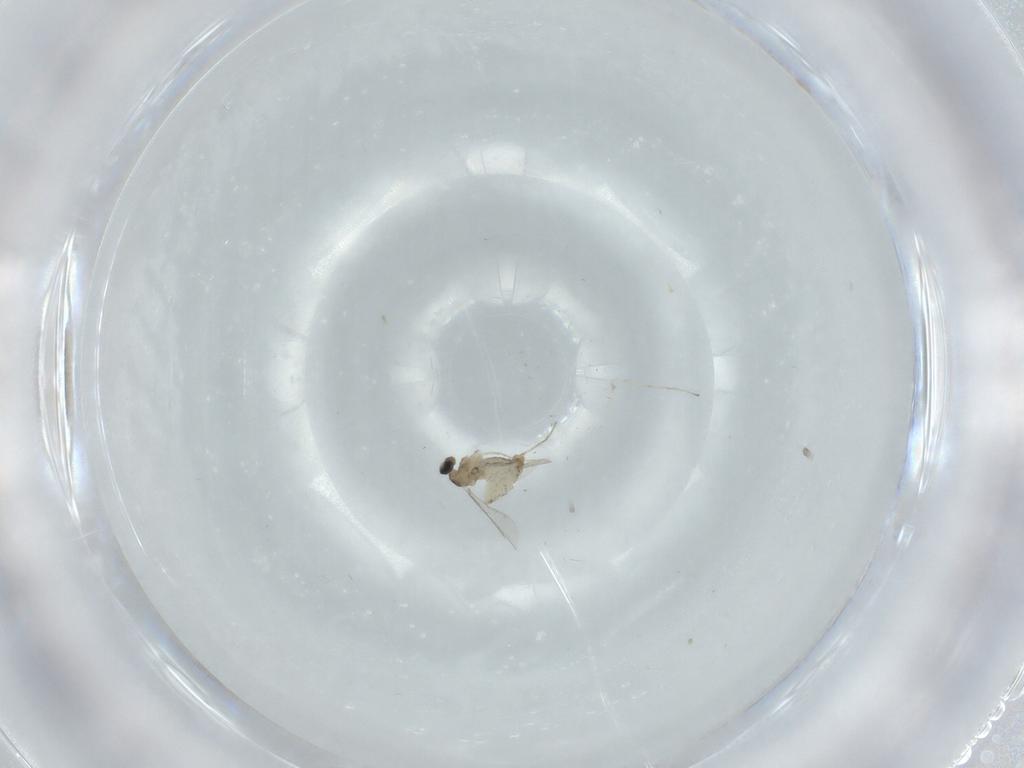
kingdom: Animalia
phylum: Arthropoda
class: Insecta
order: Diptera
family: Cecidomyiidae
